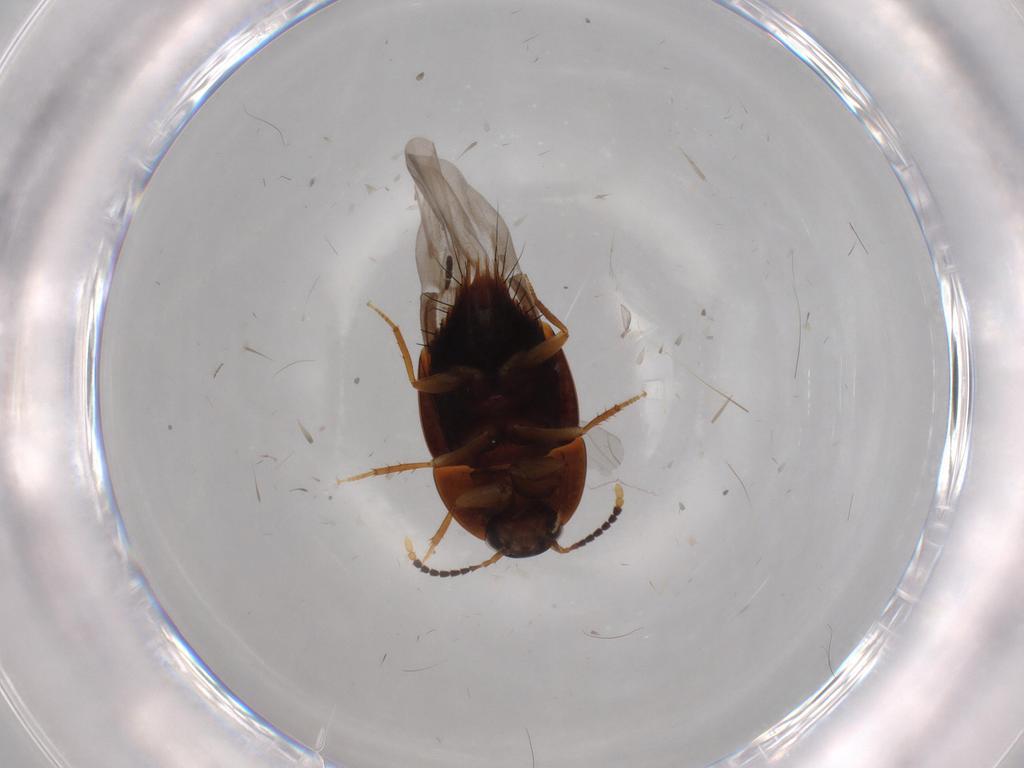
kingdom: Animalia
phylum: Arthropoda
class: Insecta
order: Coleoptera
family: Staphylinidae
